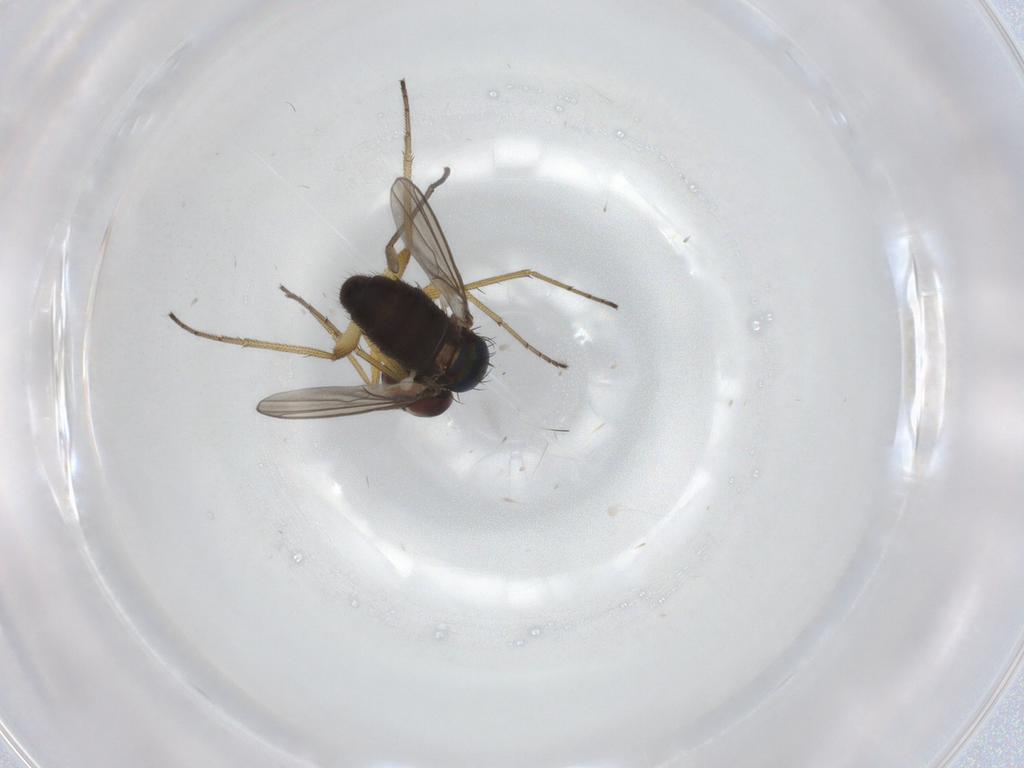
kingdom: Animalia
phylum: Arthropoda
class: Insecta
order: Diptera
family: Dolichopodidae
